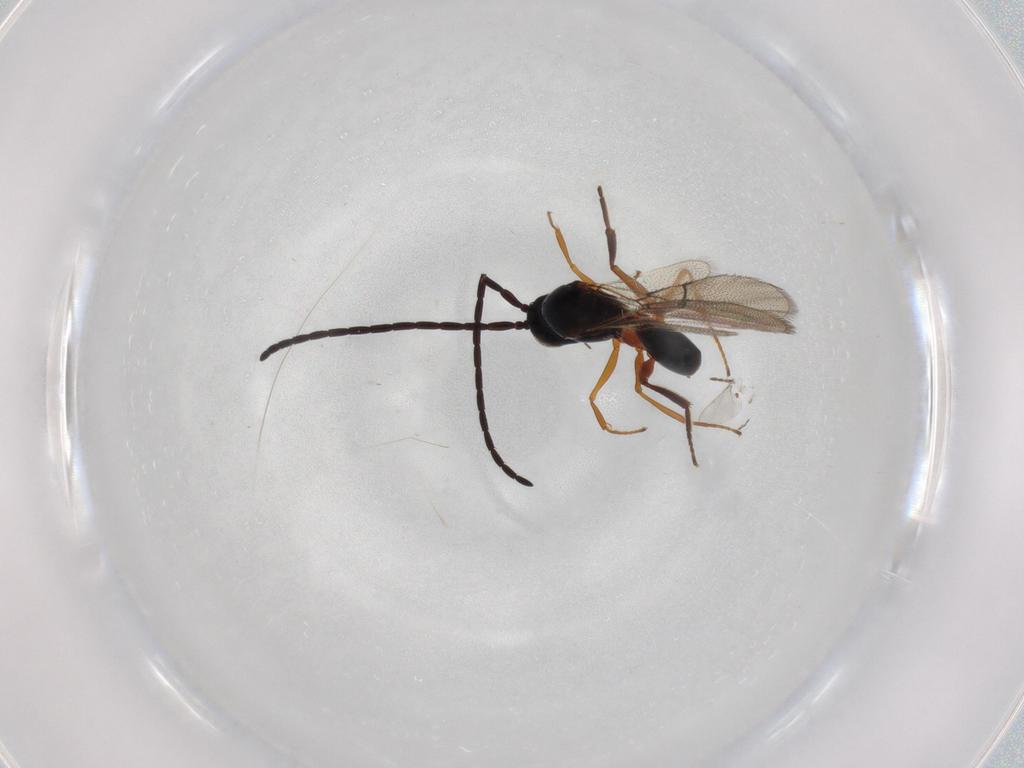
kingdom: Animalia
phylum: Arthropoda
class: Insecta
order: Hymenoptera
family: Figitidae
